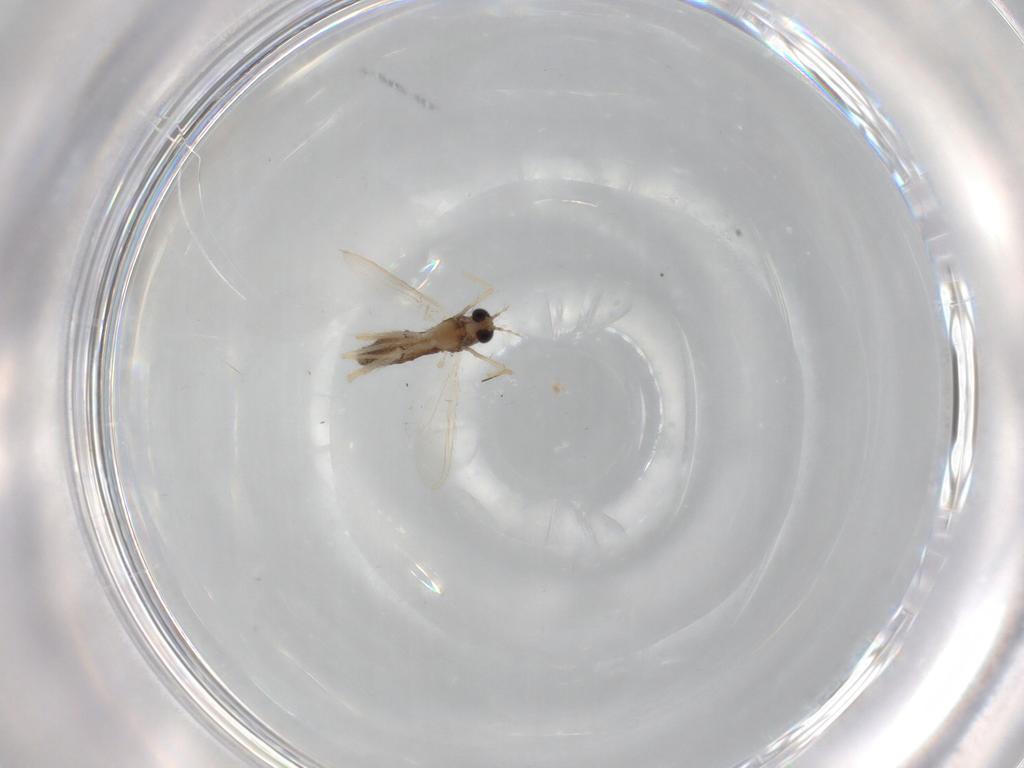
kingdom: Animalia
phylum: Arthropoda
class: Insecta
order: Diptera
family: Chironomidae
